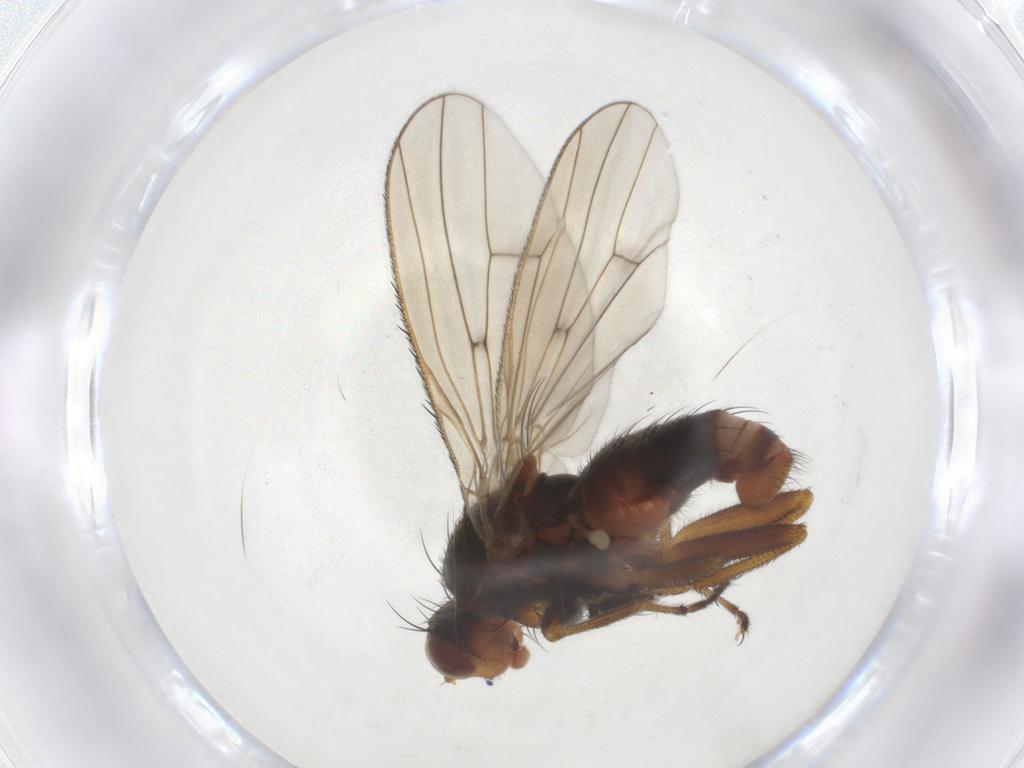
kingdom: Animalia
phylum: Arthropoda
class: Insecta
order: Diptera
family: Heleomyzidae
